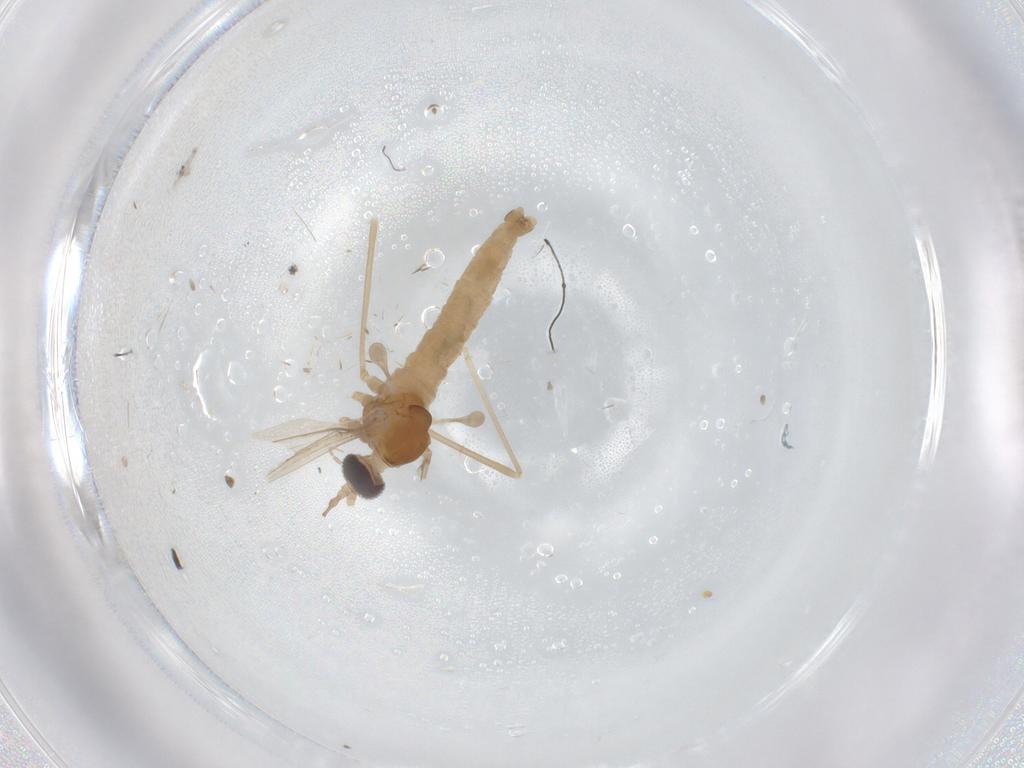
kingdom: Animalia
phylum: Arthropoda
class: Insecta
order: Diptera
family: Cecidomyiidae
